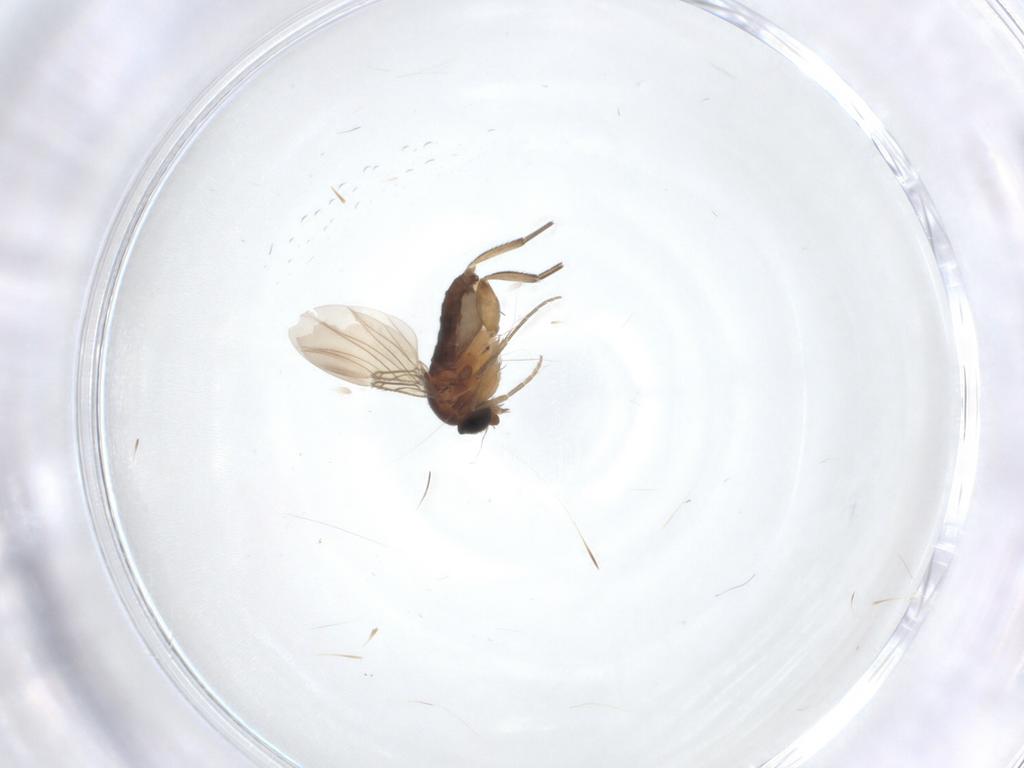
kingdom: Animalia
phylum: Arthropoda
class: Insecta
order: Diptera
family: Phoridae
